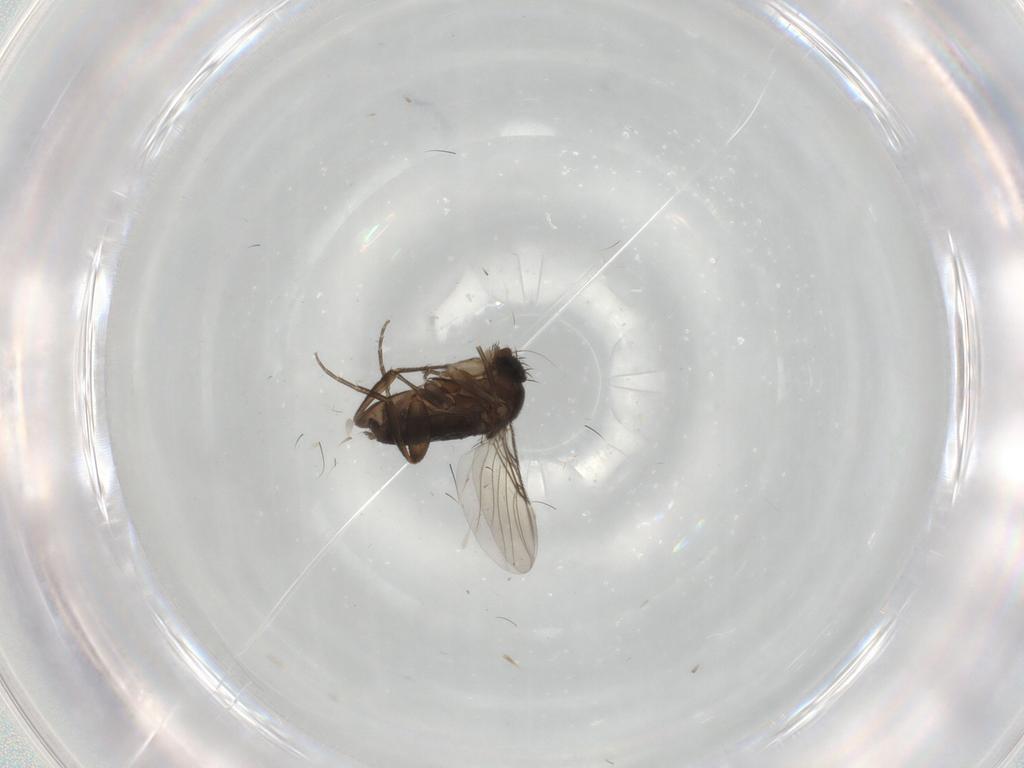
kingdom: Animalia
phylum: Arthropoda
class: Insecta
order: Diptera
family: Phoridae
